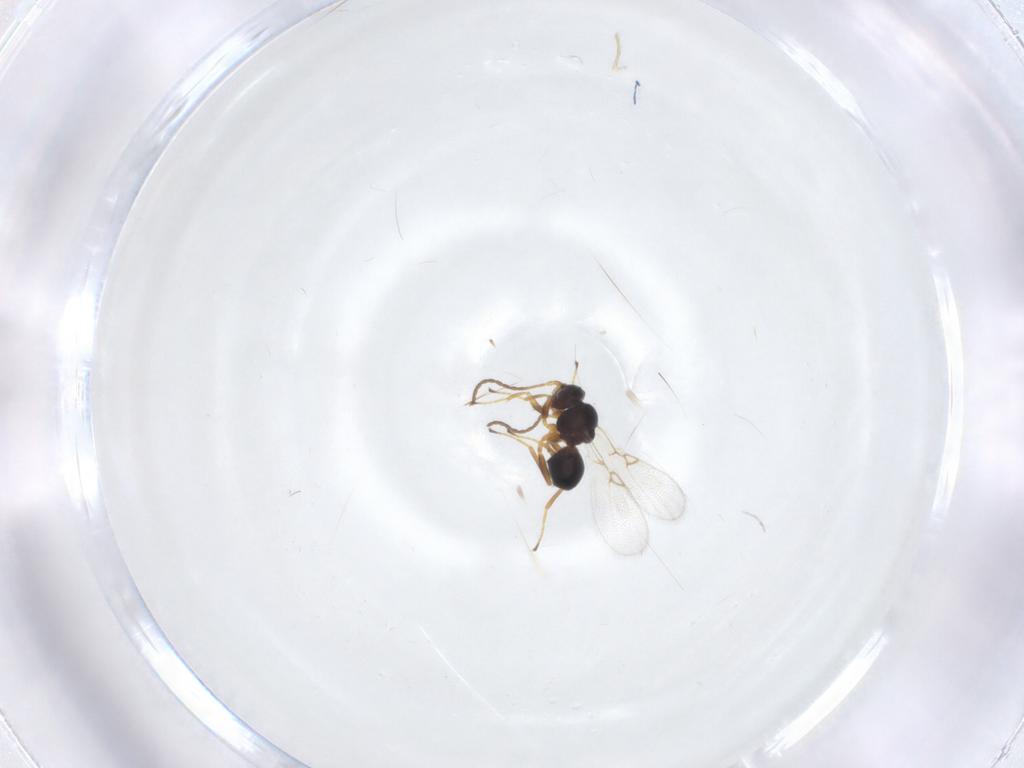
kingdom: Animalia
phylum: Arthropoda
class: Insecta
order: Hymenoptera
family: Figitidae
